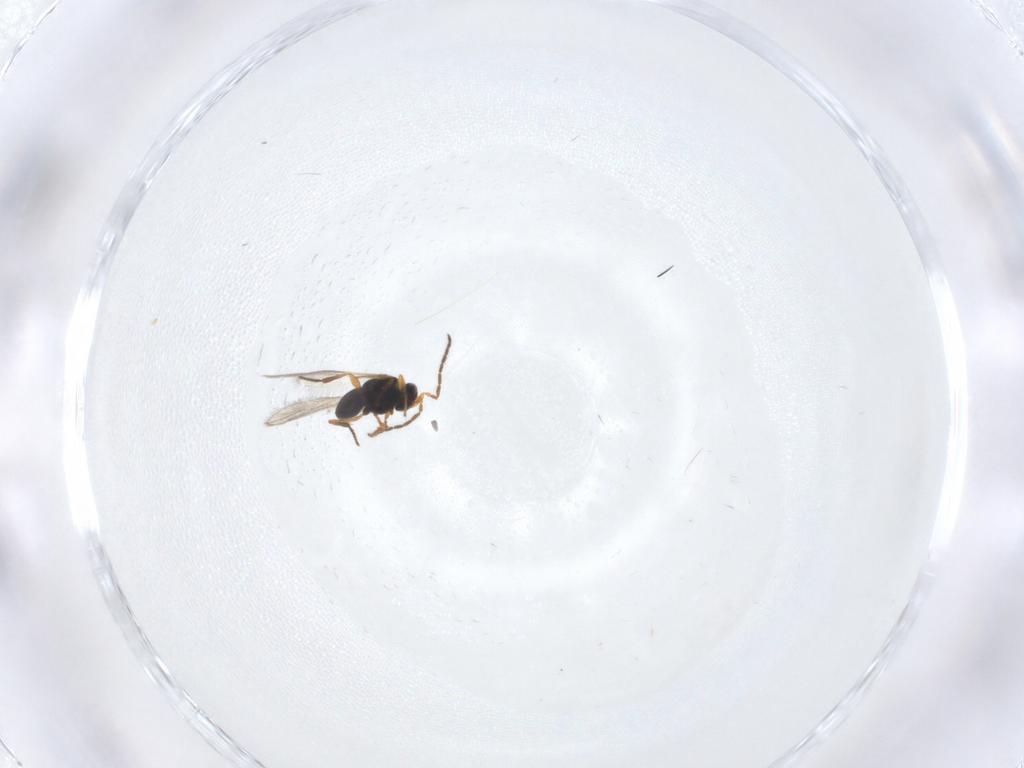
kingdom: Animalia
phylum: Arthropoda
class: Insecta
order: Hymenoptera
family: Platygastridae
